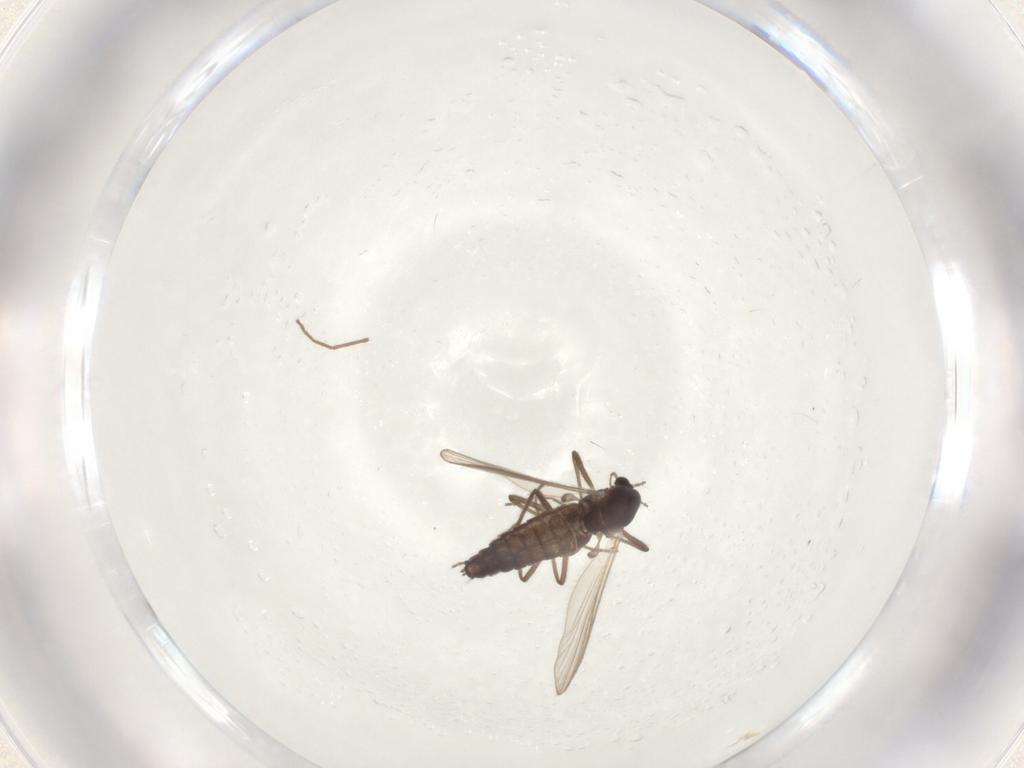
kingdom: Animalia
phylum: Arthropoda
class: Insecta
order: Diptera
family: Chironomidae
